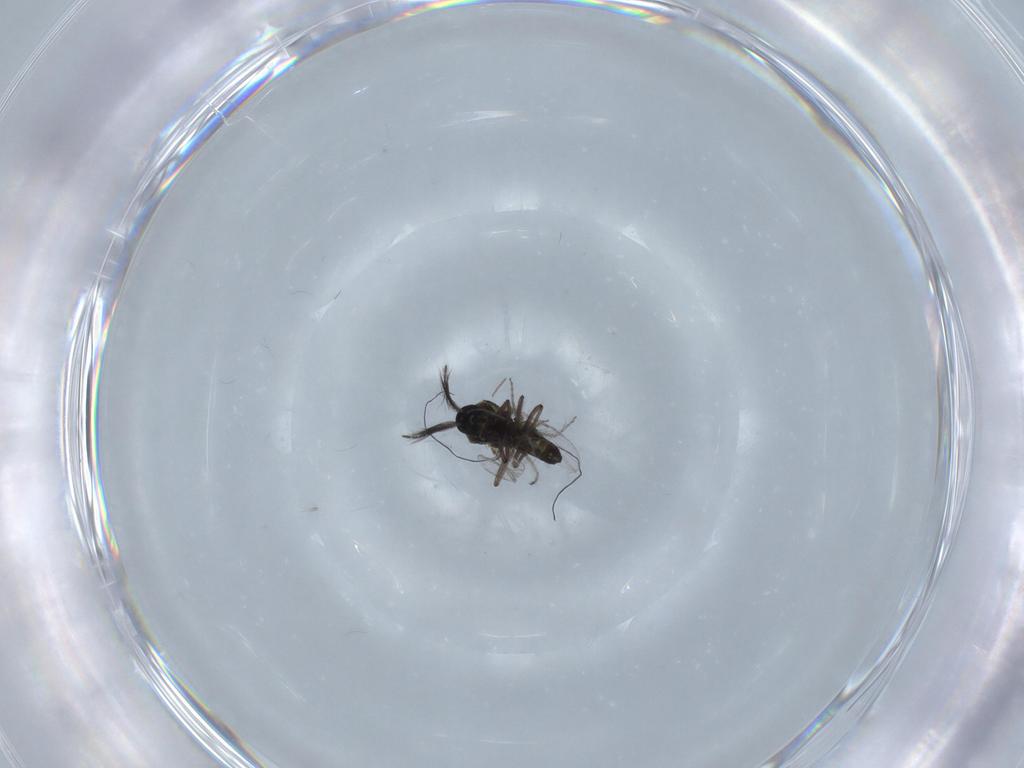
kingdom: Animalia
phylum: Arthropoda
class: Insecta
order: Diptera
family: Ceratopogonidae
